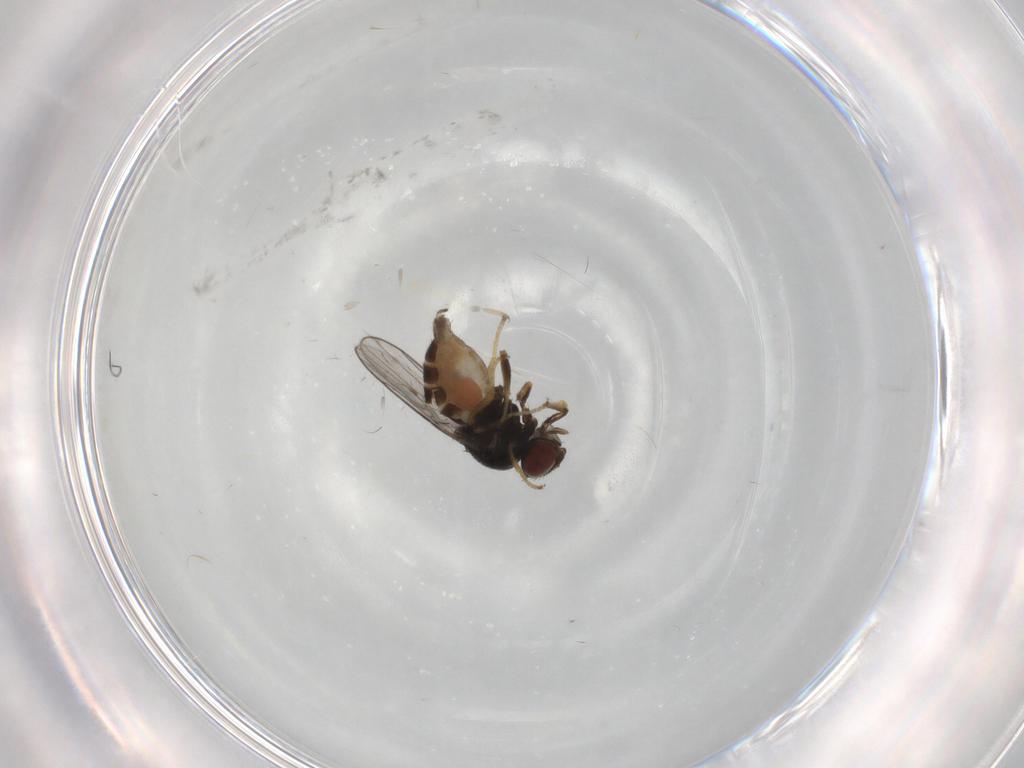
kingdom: Animalia
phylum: Arthropoda
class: Insecta
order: Diptera
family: Chloropidae
